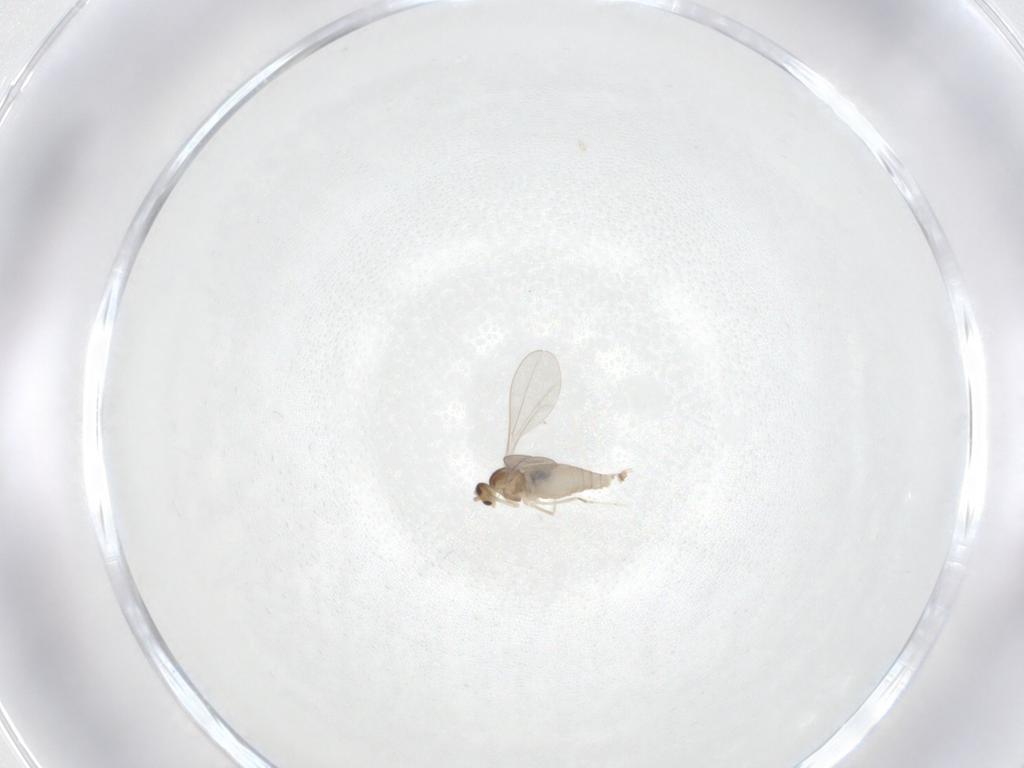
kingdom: Animalia
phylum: Arthropoda
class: Insecta
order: Diptera
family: Cecidomyiidae
